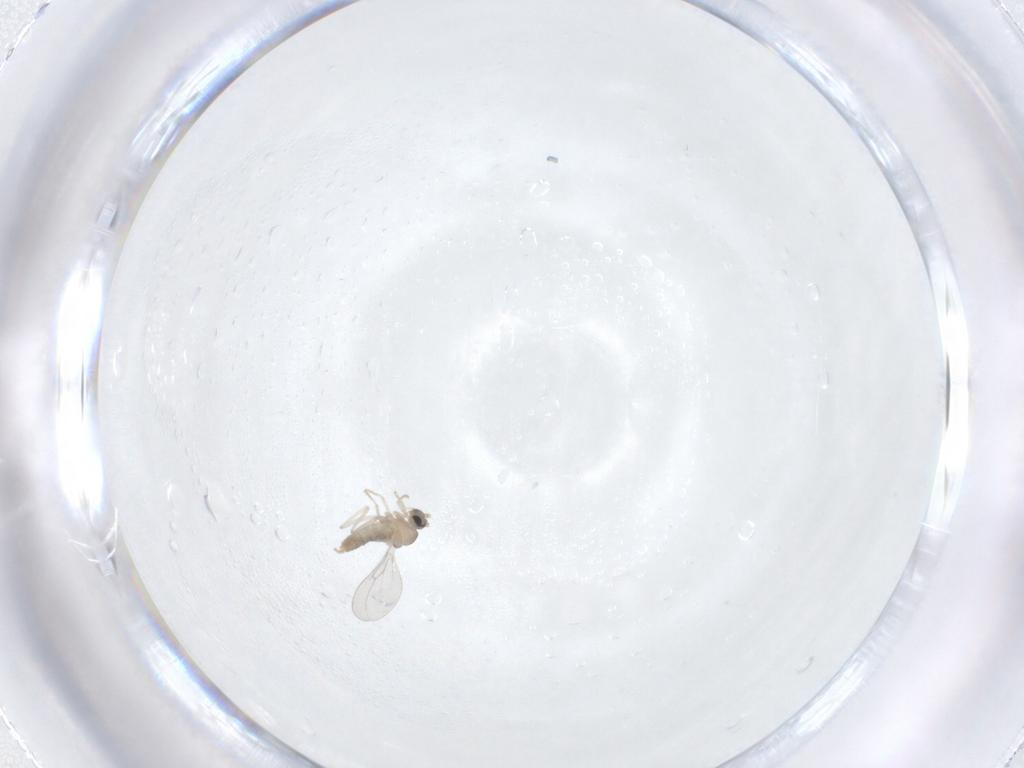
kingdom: Animalia
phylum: Arthropoda
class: Insecta
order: Diptera
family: Cecidomyiidae
